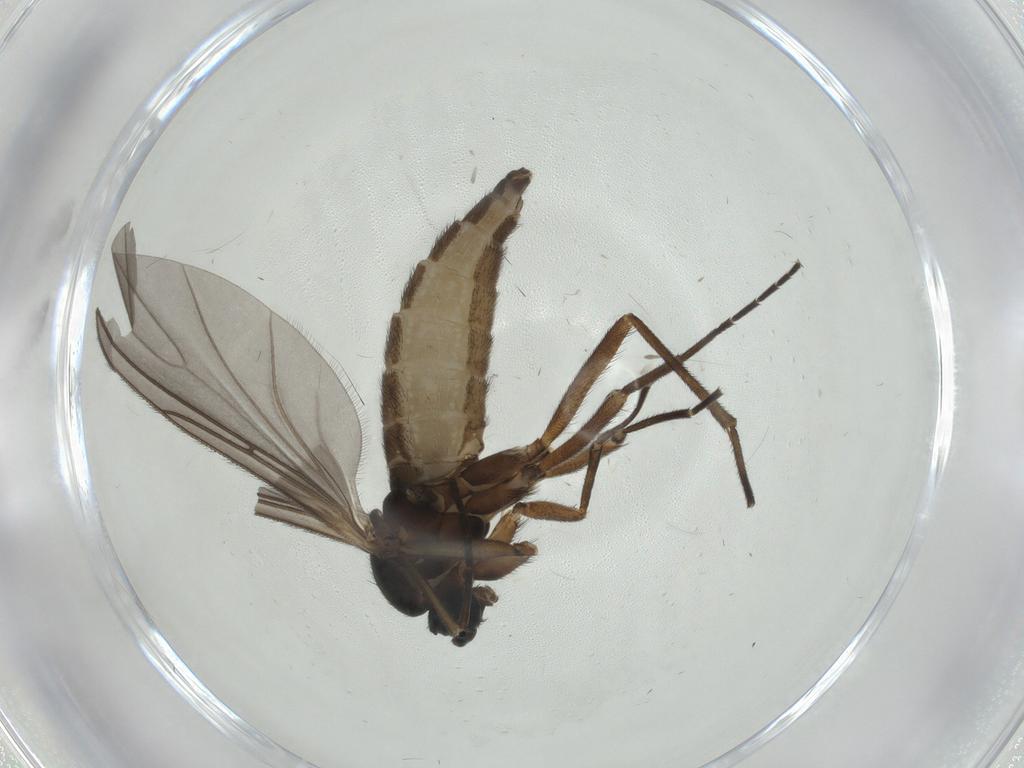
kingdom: Animalia
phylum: Arthropoda
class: Insecta
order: Diptera
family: Sciaridae
